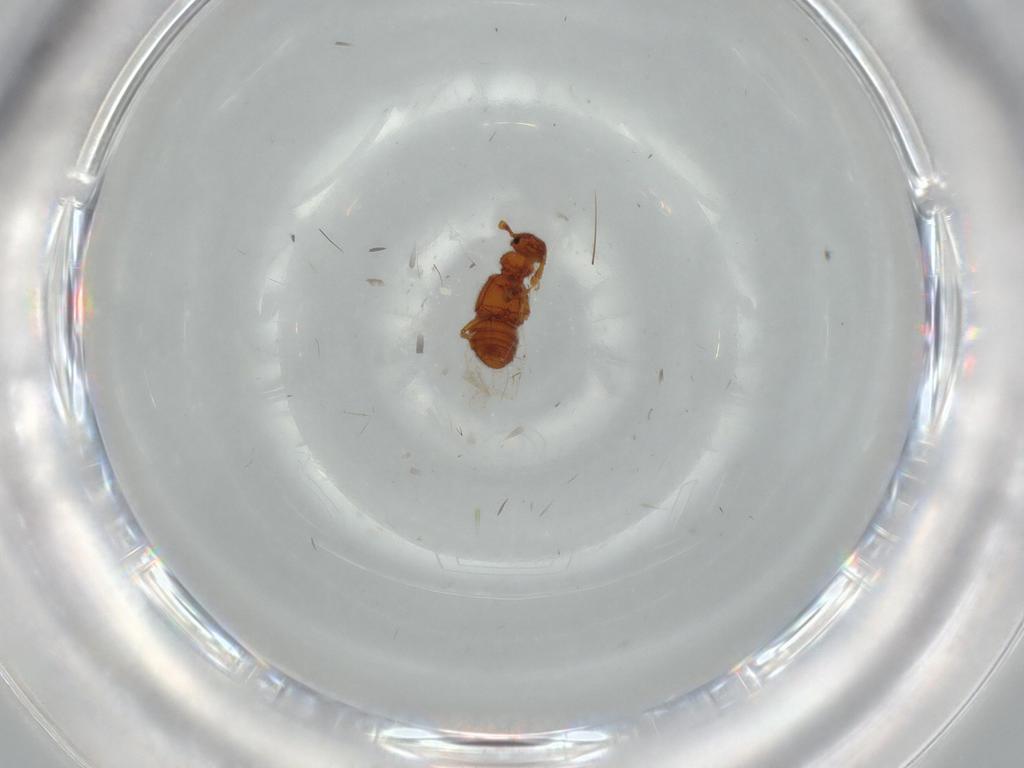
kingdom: Animalia
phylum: Arthropoda
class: Insecta
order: Coleoptera
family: Staphylinidae
